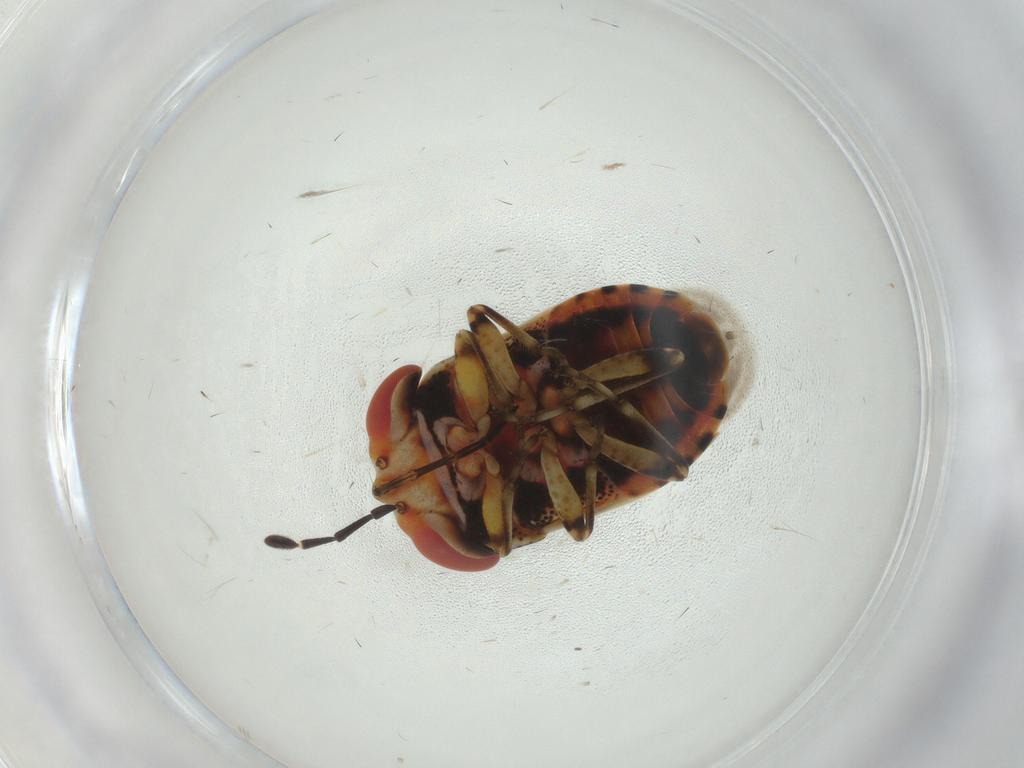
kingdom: Animalia
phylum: Arthropoda
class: Insecta
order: Hemiptera
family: Geocoridae
